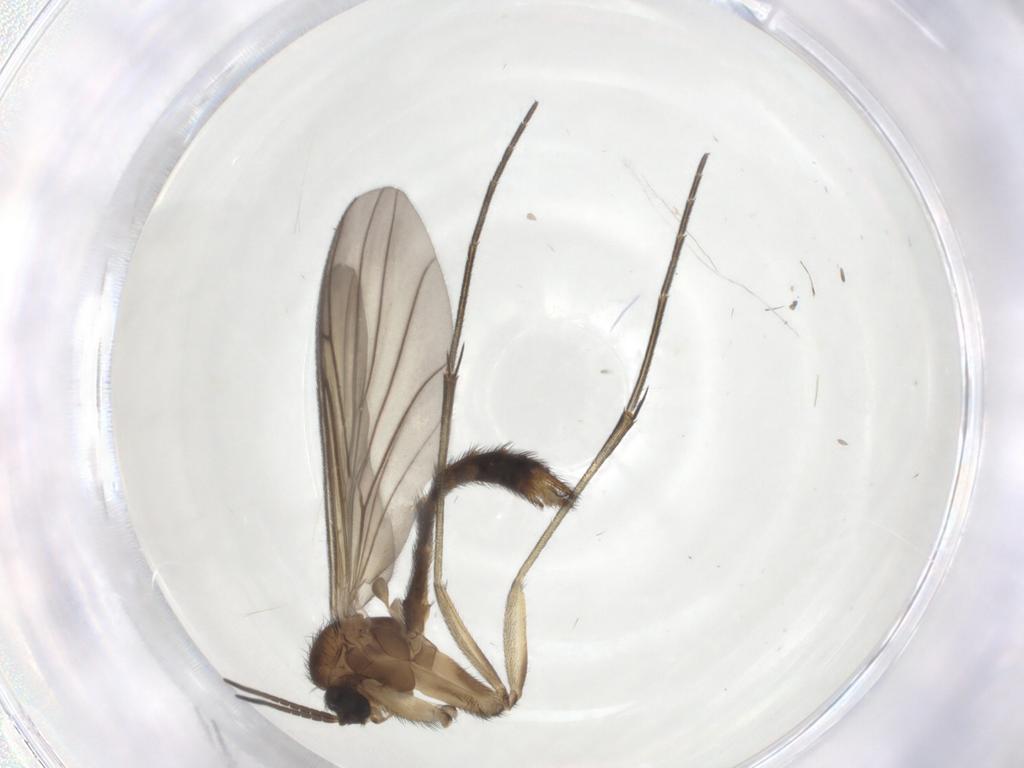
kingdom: Animalia
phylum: Arthropoda
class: Insecta
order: Diptera
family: Keroplatidae
